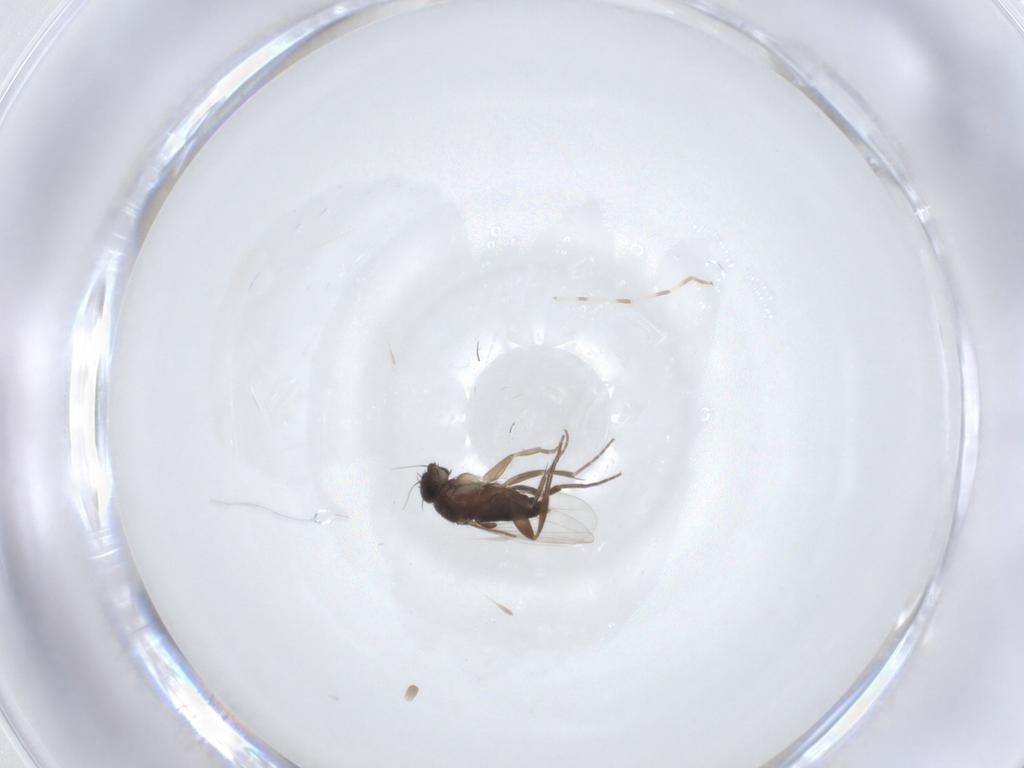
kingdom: Animalia
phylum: Arthropoda
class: Insecta
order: Diptera
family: Phoridae
